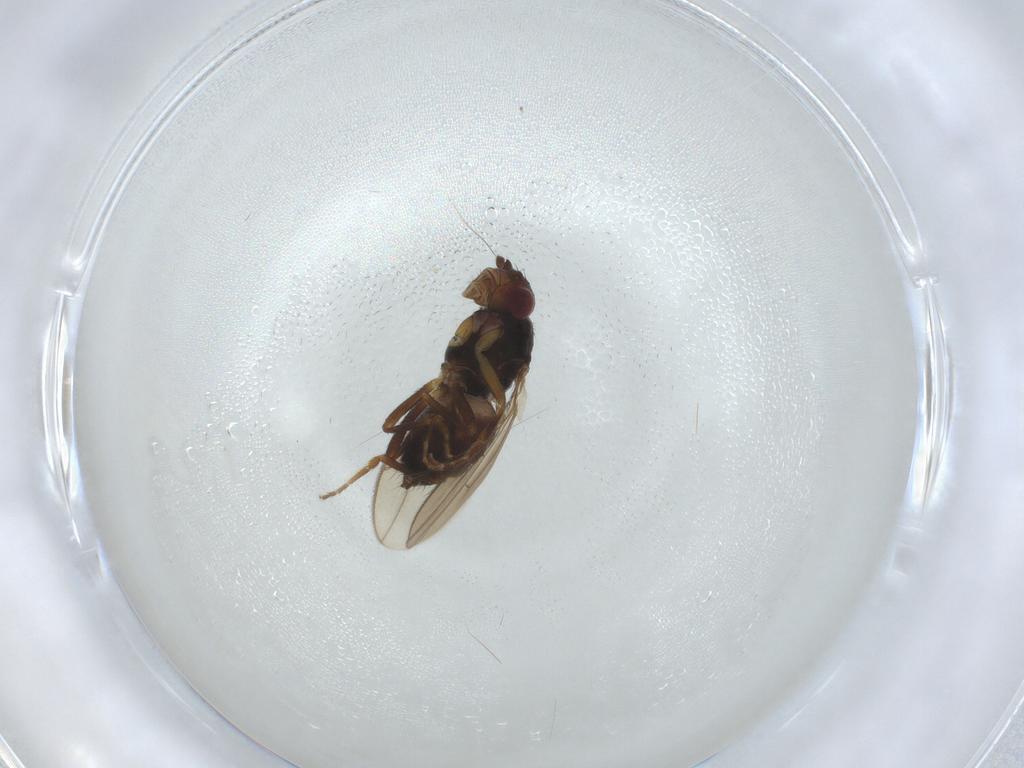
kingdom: Animalia
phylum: Arthropoda
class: Insecta
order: Diptera
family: Sphaeroceridae
